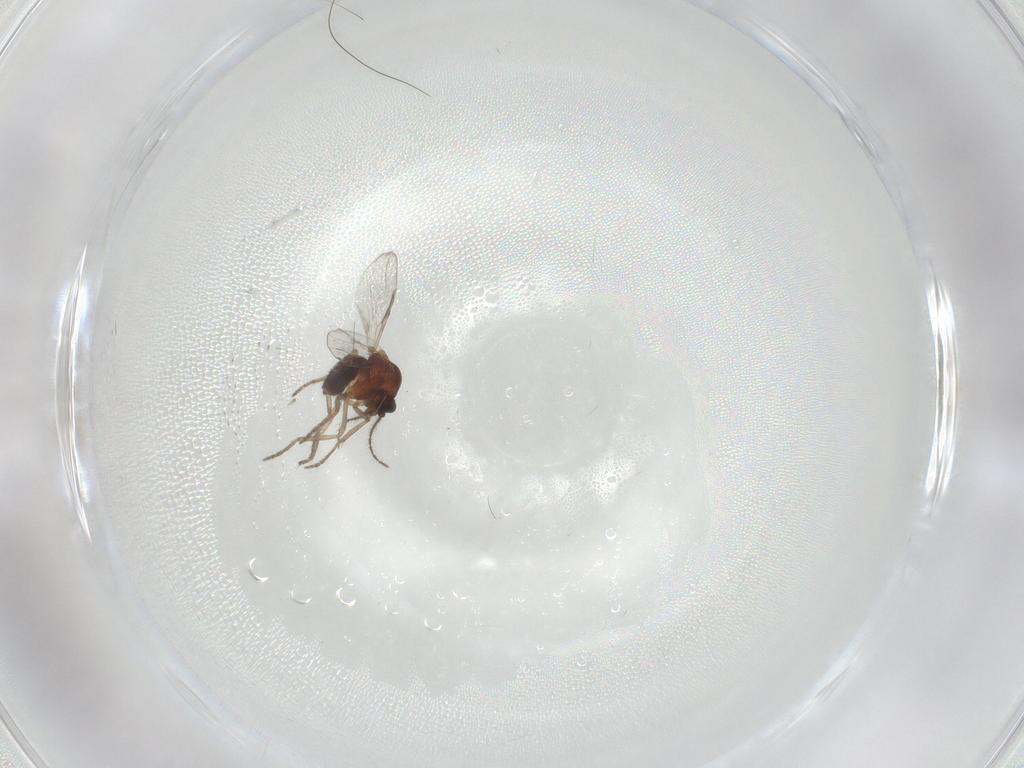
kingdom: Animalia
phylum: Arthropoda
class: Insecta
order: Diptera
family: Ceratopogonidae
